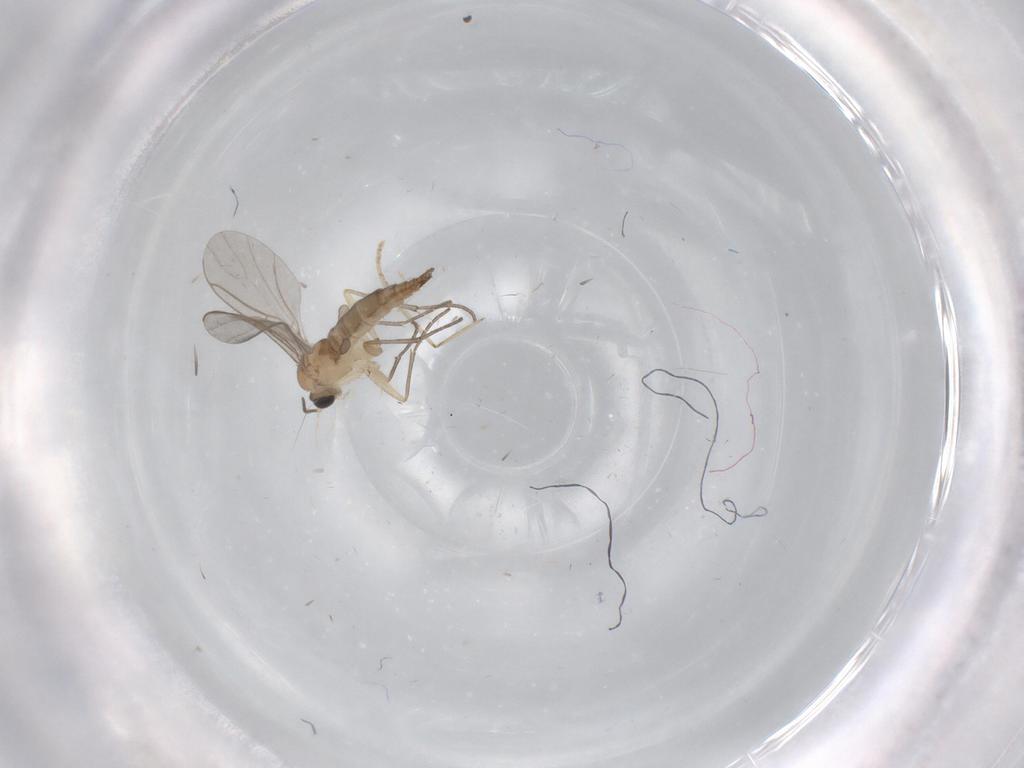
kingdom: Animalia
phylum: Arthropoda
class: Insecta
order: Diptera
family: Sciaridae
